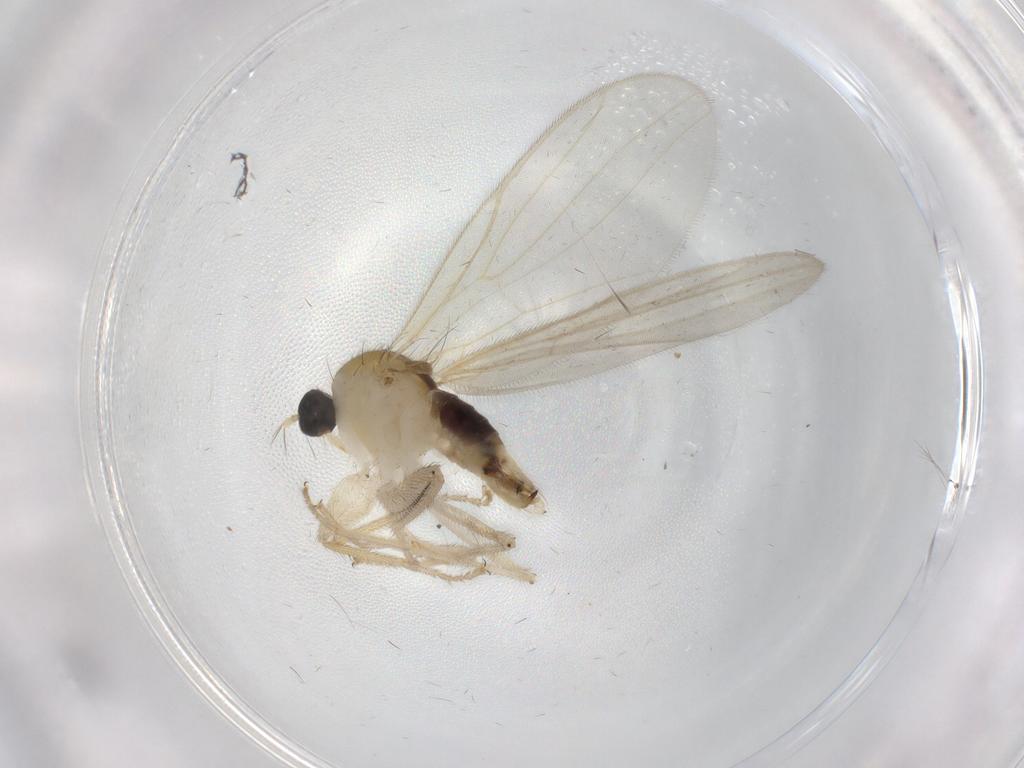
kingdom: Animalia
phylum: Arthropoda
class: Insecta
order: Diptera
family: Hybotidae
